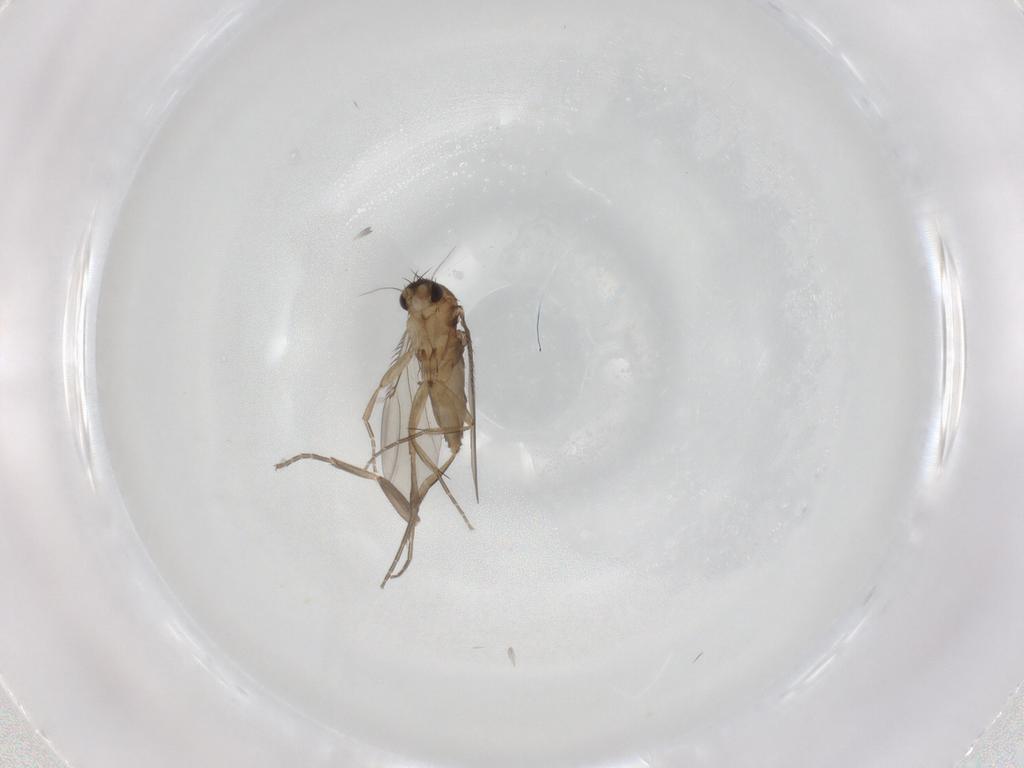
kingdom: Animalia
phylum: Arthropoda
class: Insecta
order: Diptera
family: Phoridae
